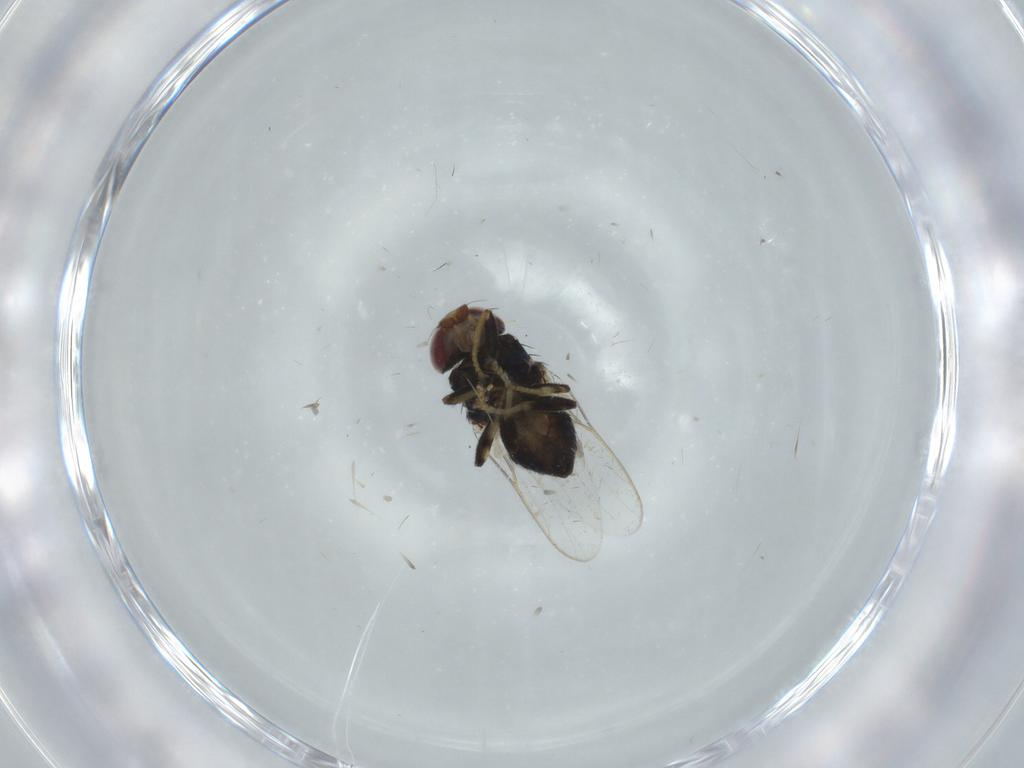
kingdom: Animalia
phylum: Arthropoda
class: Insecta
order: Diptera
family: Chloropidae
